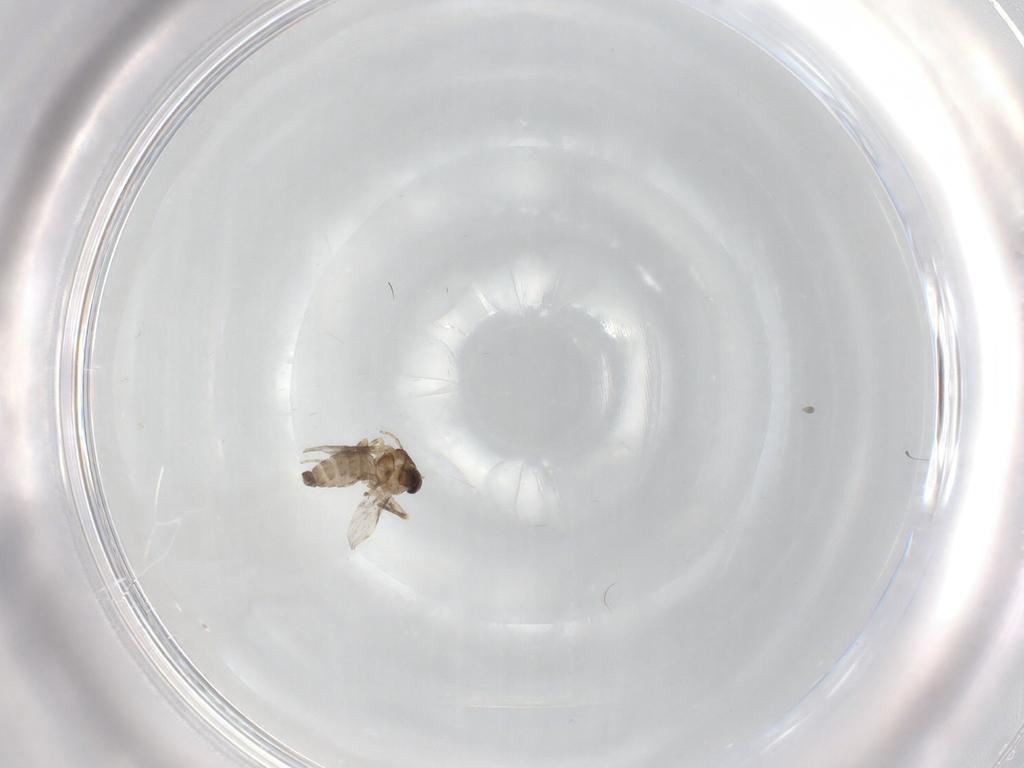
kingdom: Animalia
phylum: Arthropoda
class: Insecta
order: Diptera
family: Ceratopogonidae
